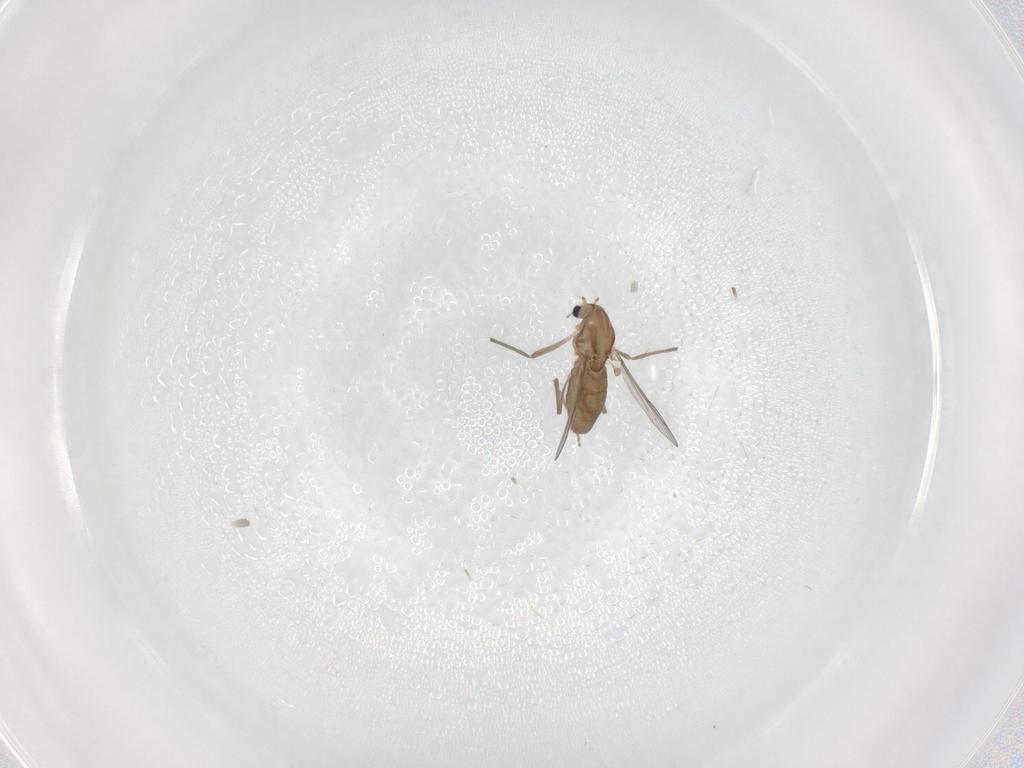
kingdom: Animalia
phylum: Arthropoda
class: Insecta
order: Diptera
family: Chironomidae
